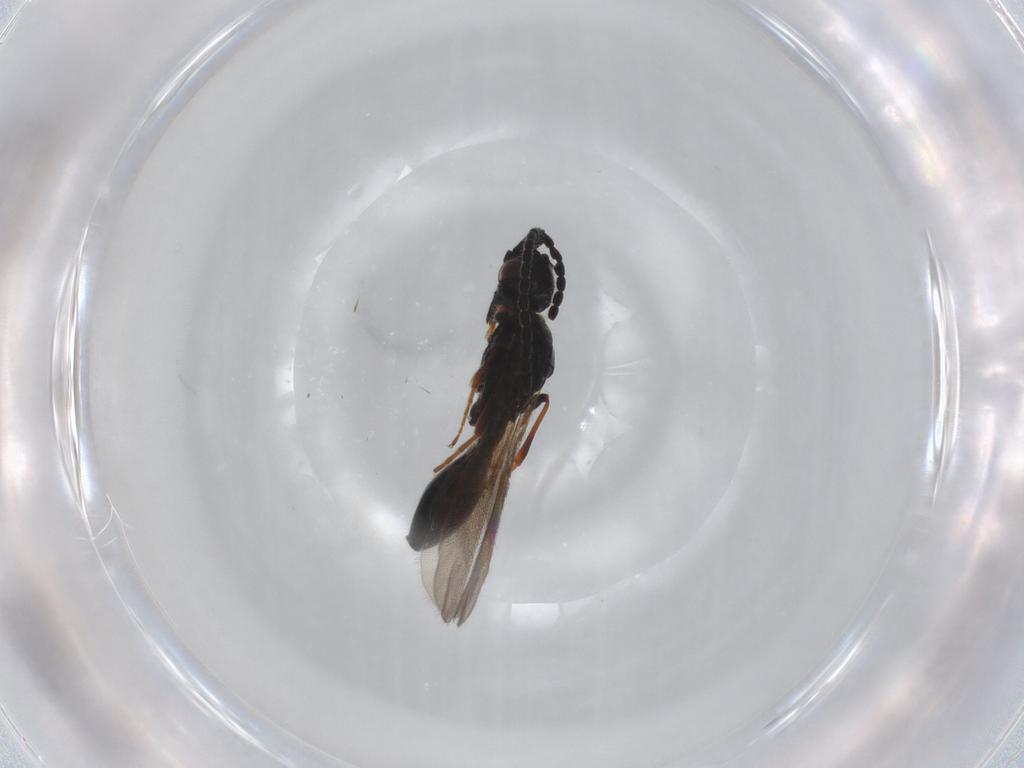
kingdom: Animalia
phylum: Arthropoda
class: Insecta
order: Hymenoptera
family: Diapriidae
